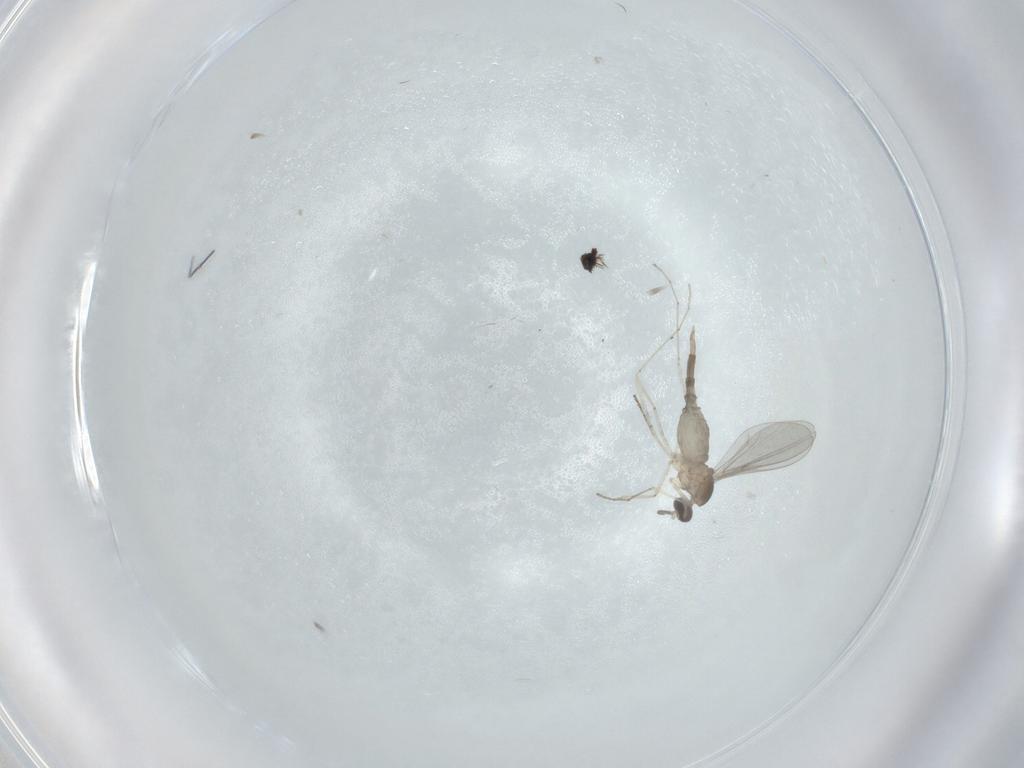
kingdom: Animalia
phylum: Arthropoda
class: Insecta
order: Diptera
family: Cecidomyiidae
